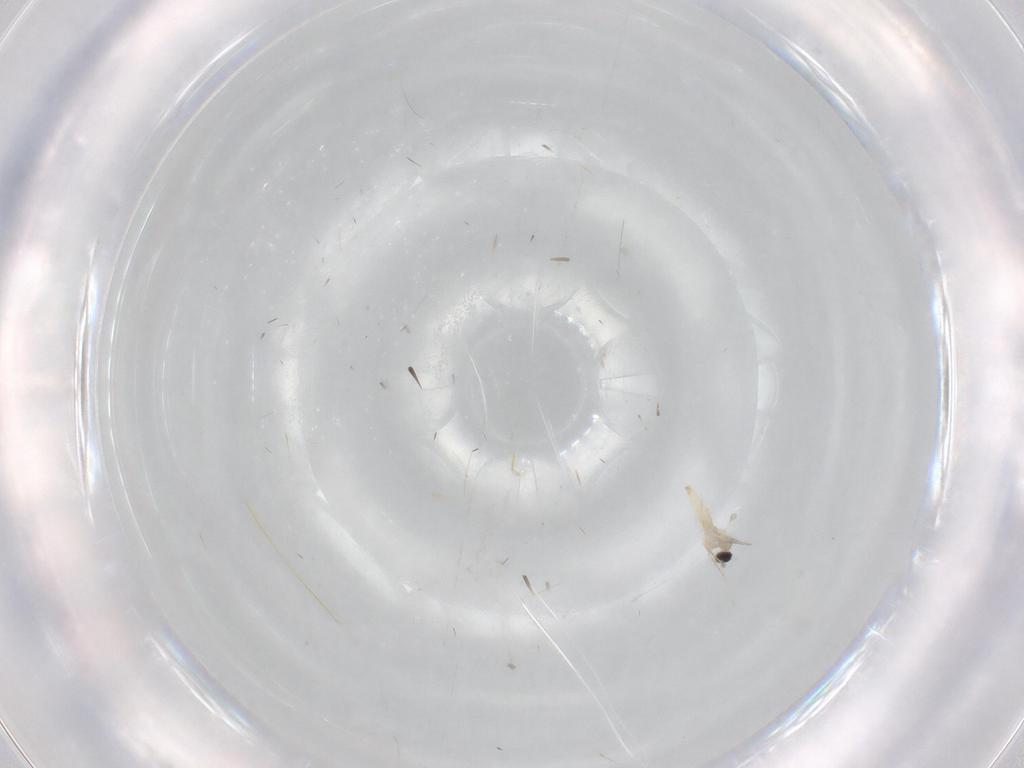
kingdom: Animalia
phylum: Arthropoda
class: Insecta
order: Diptera
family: Cecidomyiidae
